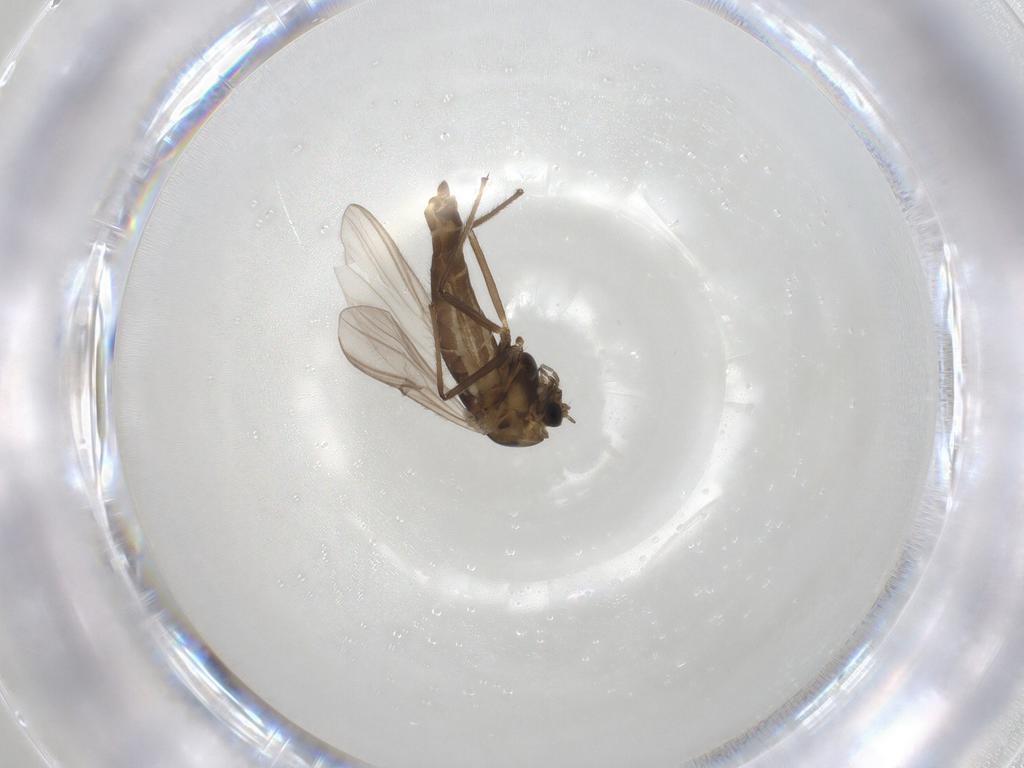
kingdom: Animalia
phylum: Arthropoda
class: Insecta
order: Diptera
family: Chironomidae
